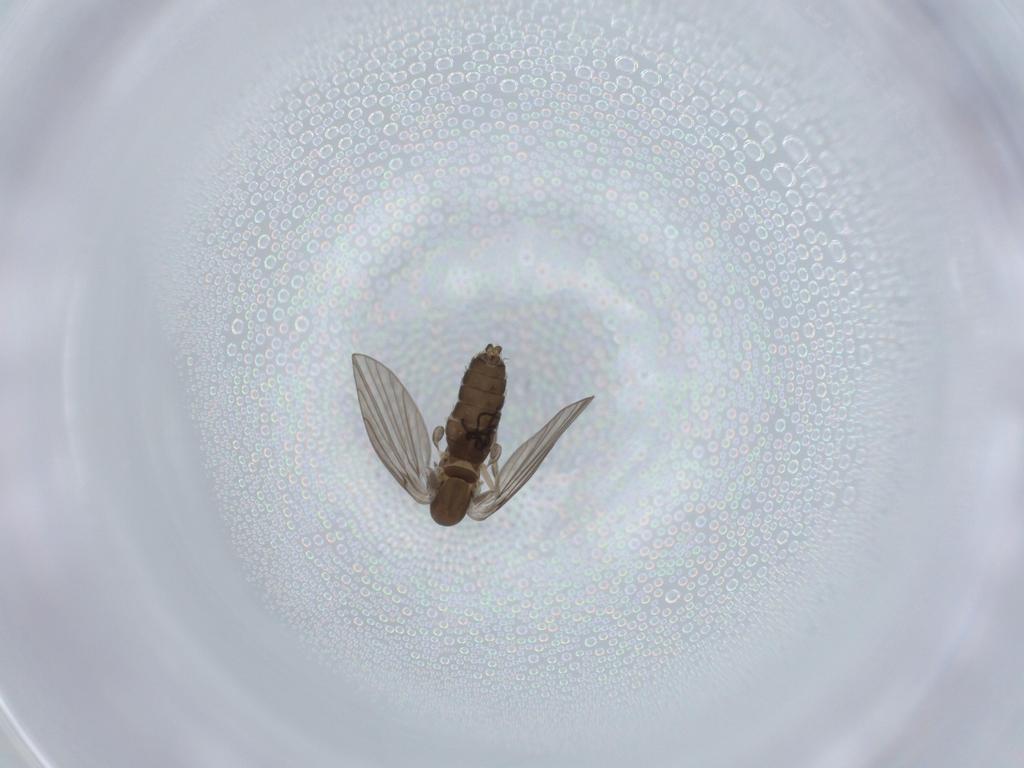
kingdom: Animalia
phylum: Arthropoda
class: Insecta
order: Diptera
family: Psychodidae
